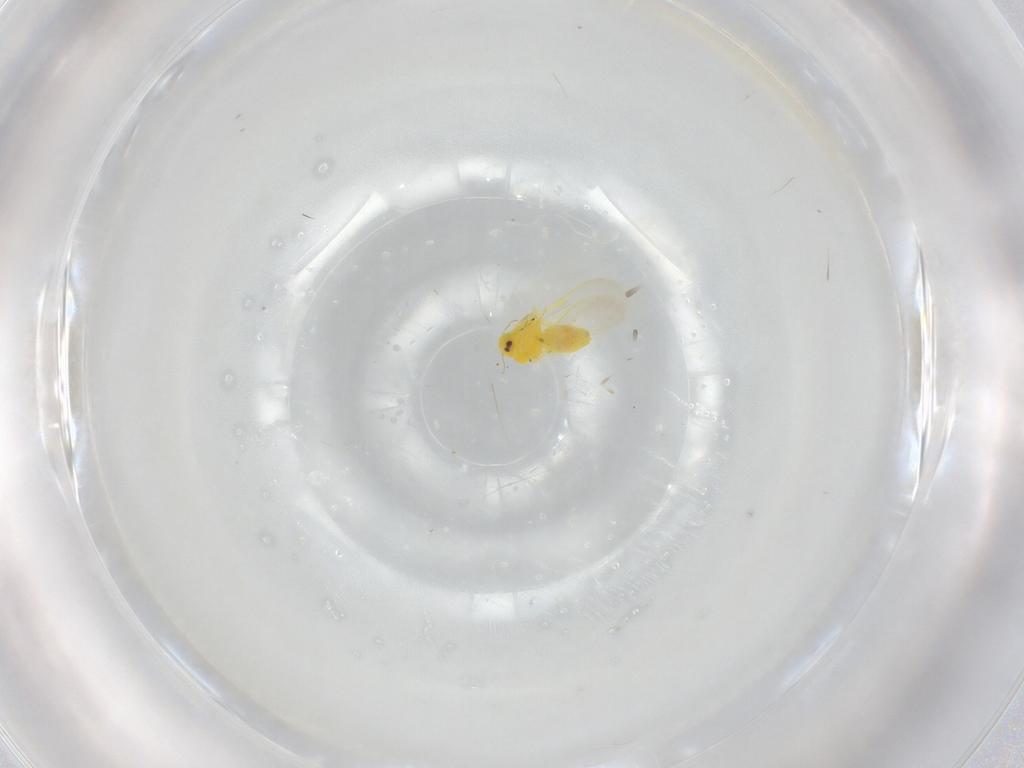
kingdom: Animalia
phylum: Arthropoda
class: Insecta
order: Hemiptera
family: Aleyrodidae
